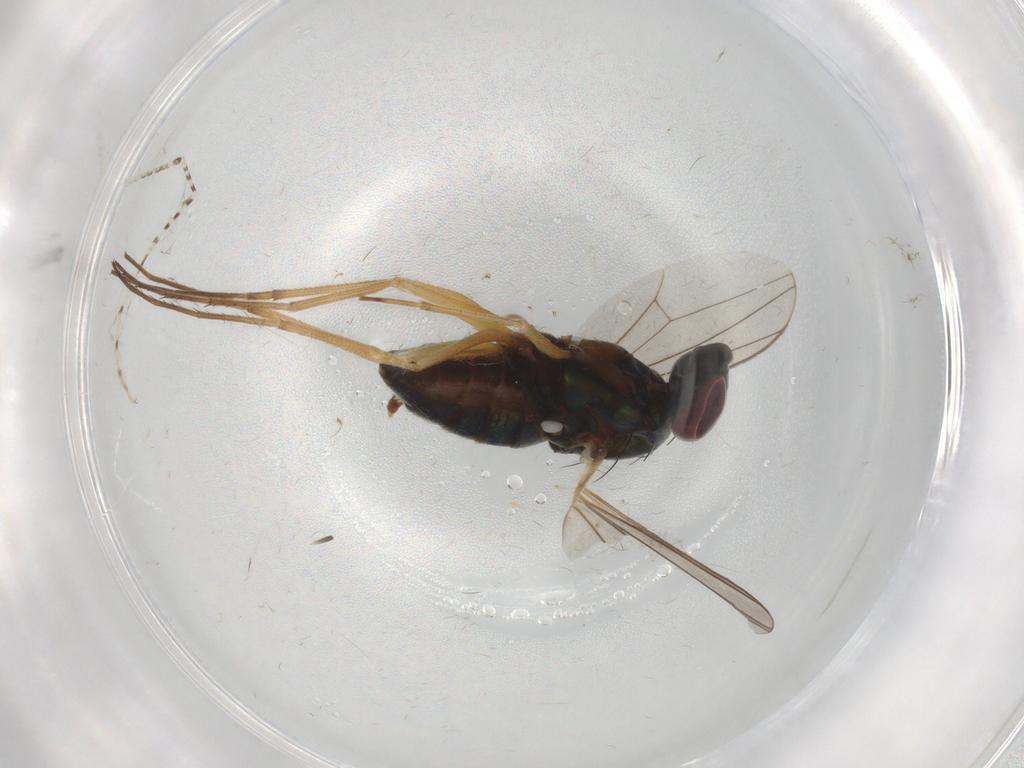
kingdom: Animalia
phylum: Arthropoda
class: Insecta
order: Diptera
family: Dolichopodidae
